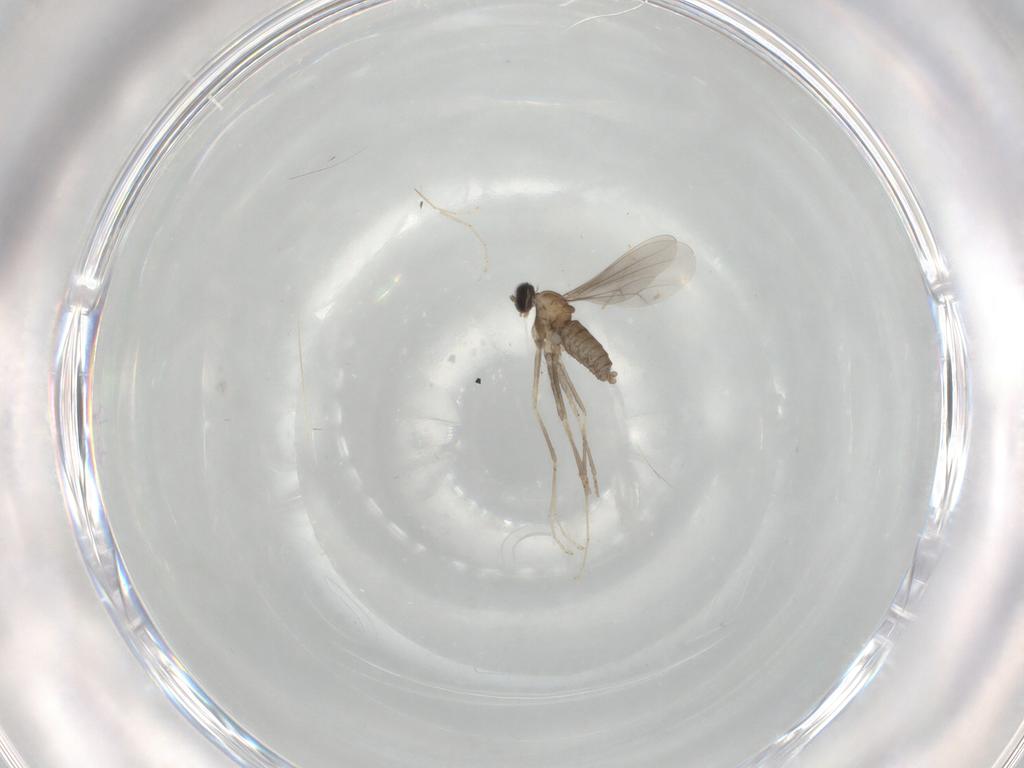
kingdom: Animalia
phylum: Arthropoda
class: Insecta
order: Diptera
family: Cecidomyiidae
